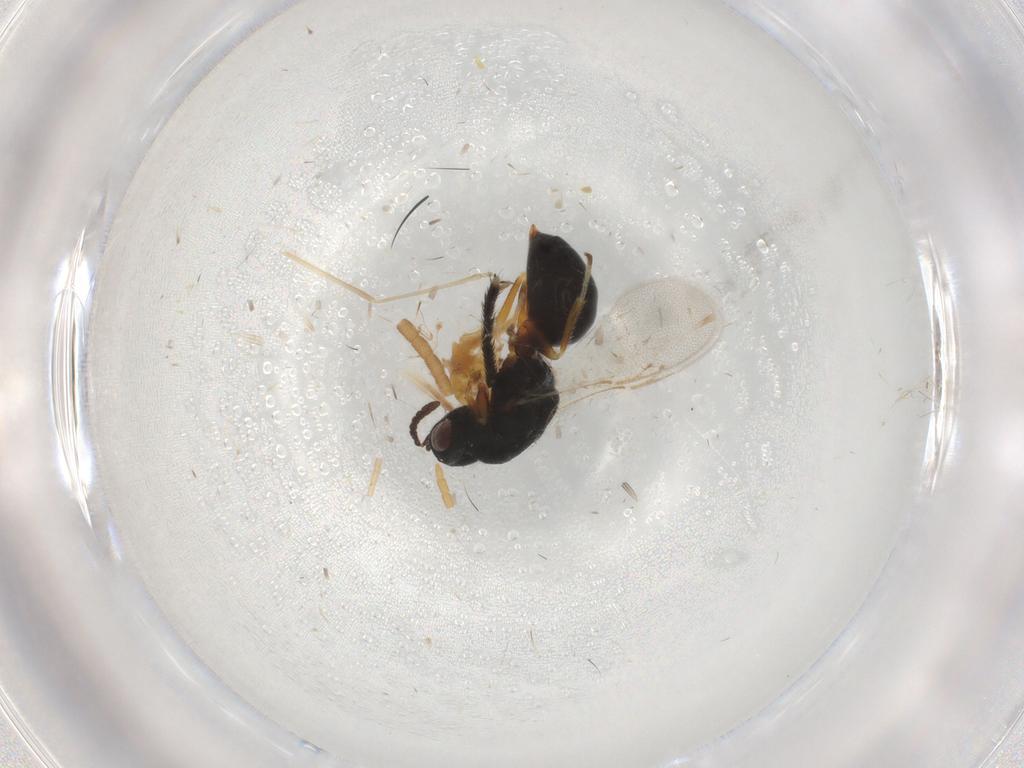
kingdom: Animalia
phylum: Arthropoda
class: Insecta
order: Hymenoptera
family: Eurytomidae
